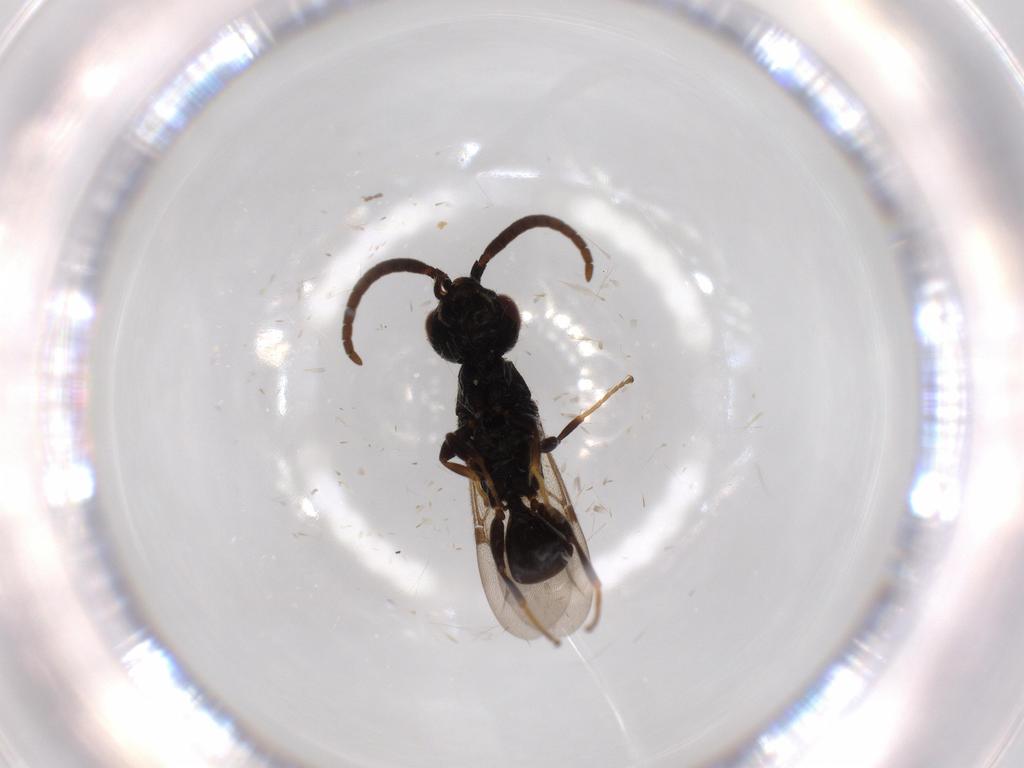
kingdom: Animalia
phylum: Arthropoda
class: Insecta
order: Hymenoptera
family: Bethylidae
